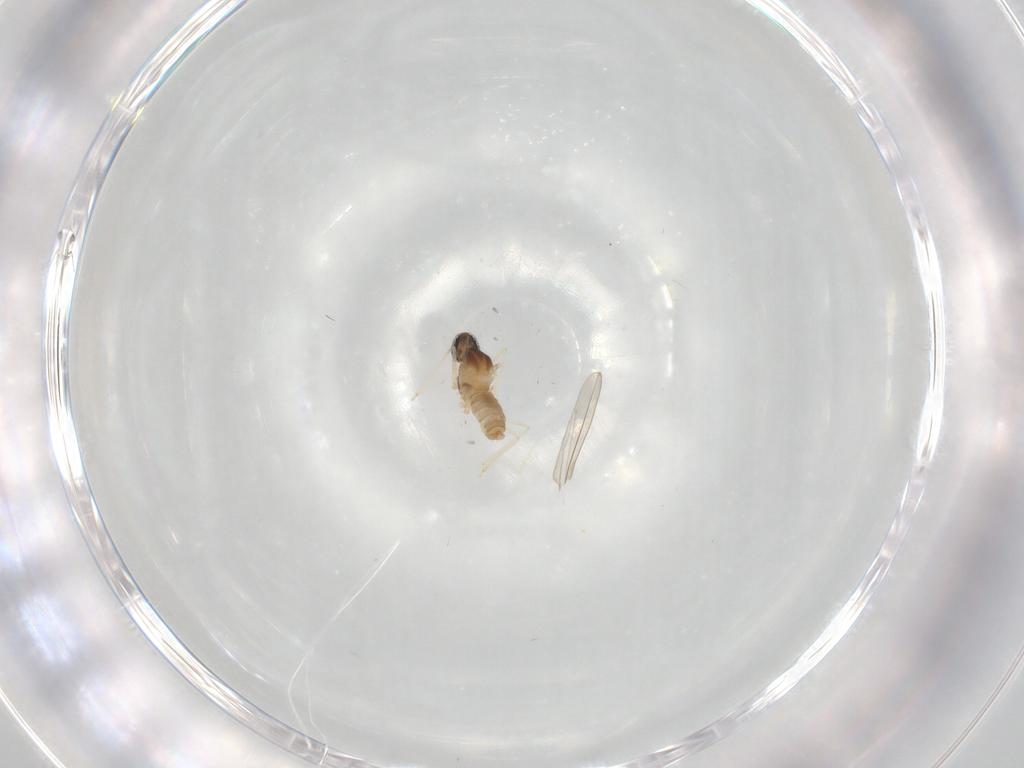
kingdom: Animalia
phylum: Arthropoda
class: Insecta
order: Diptera
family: Cecidomyiidae
